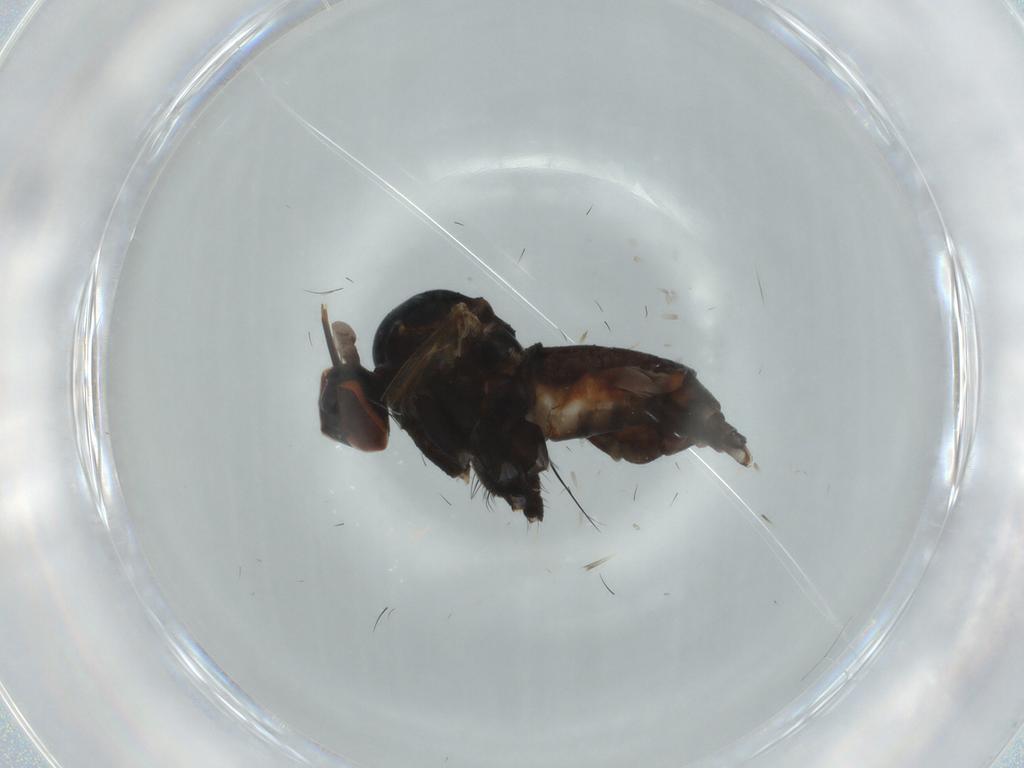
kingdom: Animalia
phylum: Arthropoda
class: Insecta
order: Diptera
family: Empididae
